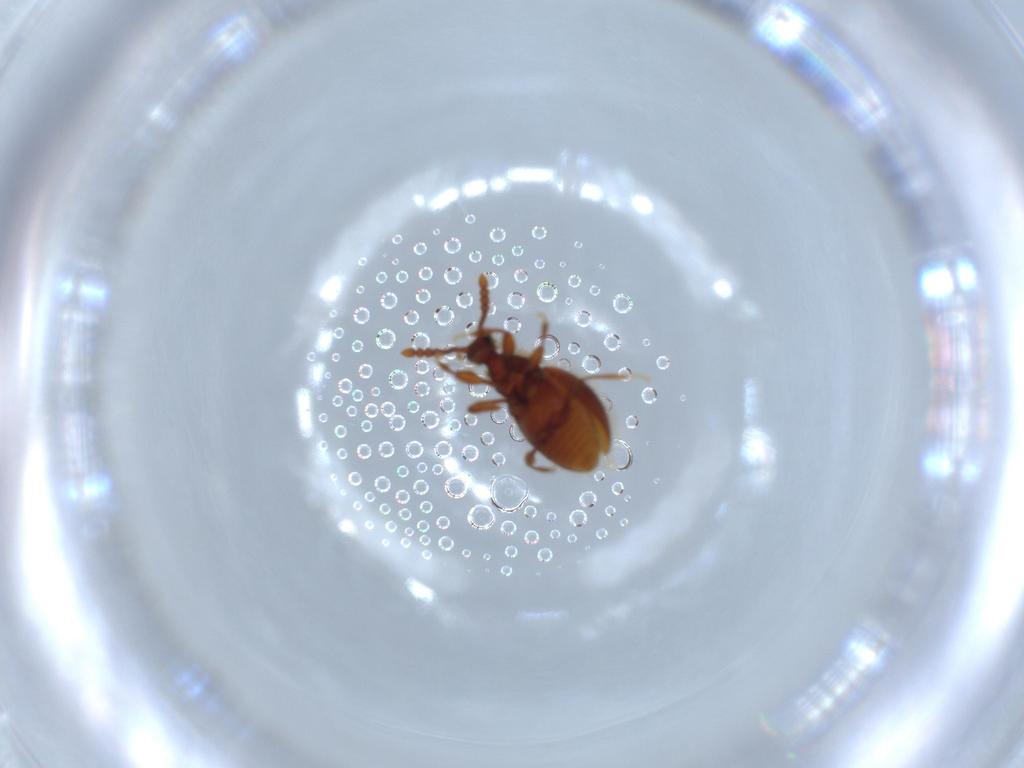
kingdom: Animalia
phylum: Arthropoda
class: Insecta
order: Coleoptera
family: Staphylinidae
